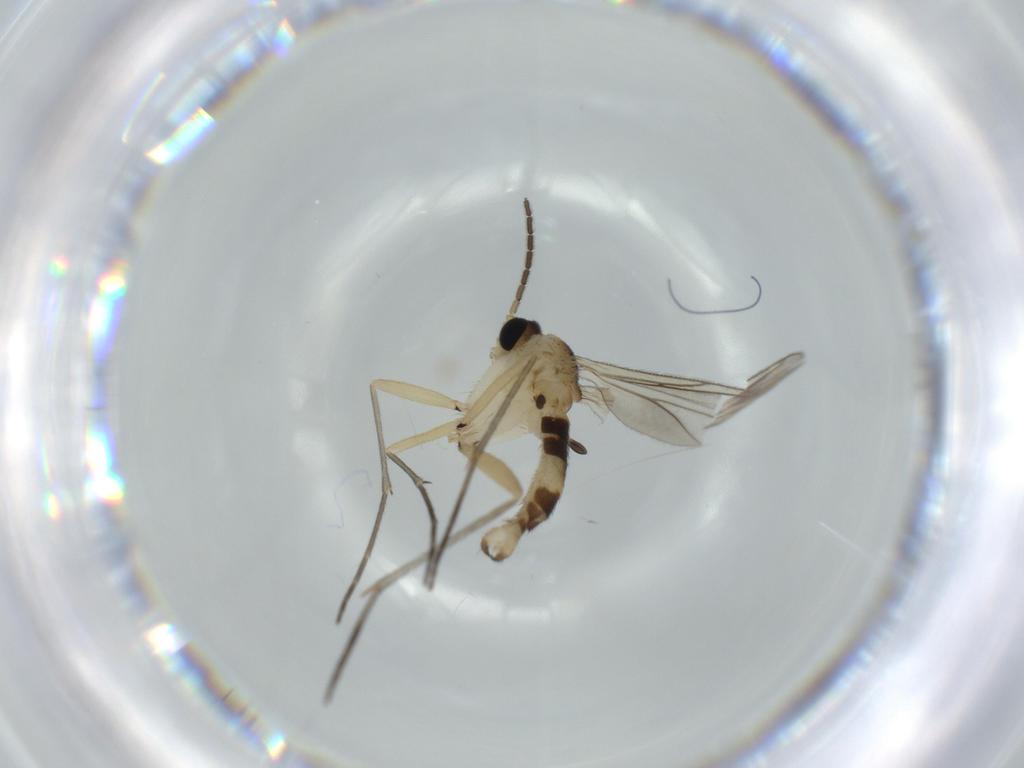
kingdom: Animalia
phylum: Arthropoda
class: Insecta
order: Diptera
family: Sciaridae
